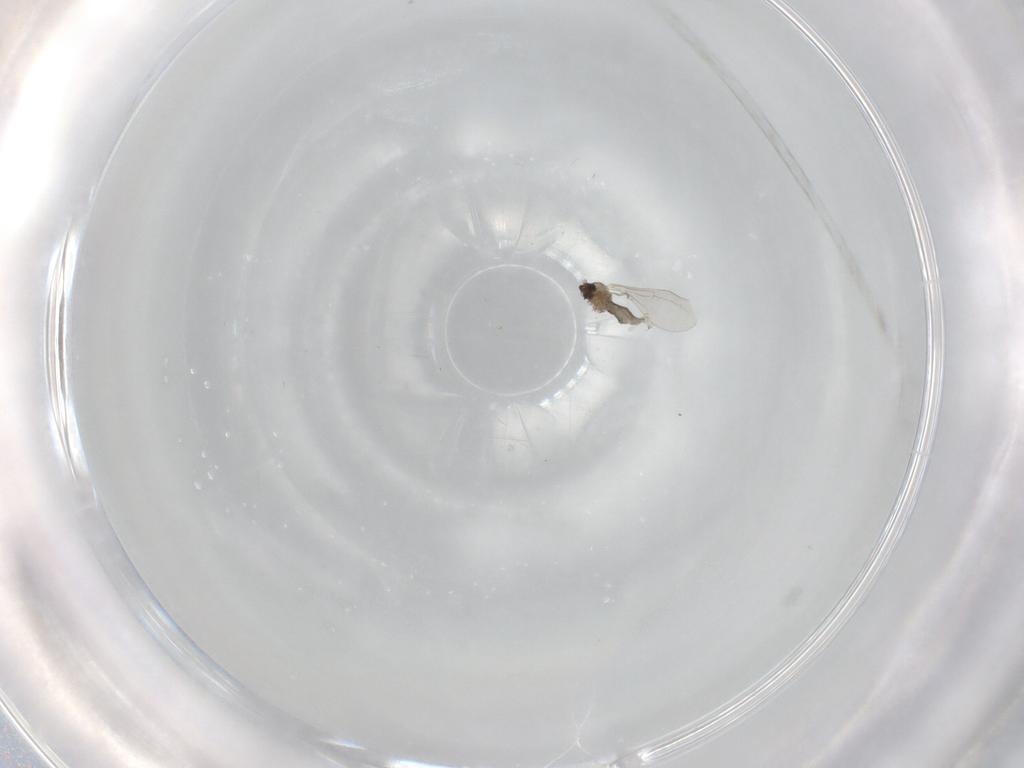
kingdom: Animalia
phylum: Arthropoda
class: Insecta
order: Diptera
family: Cecidomyiidae
